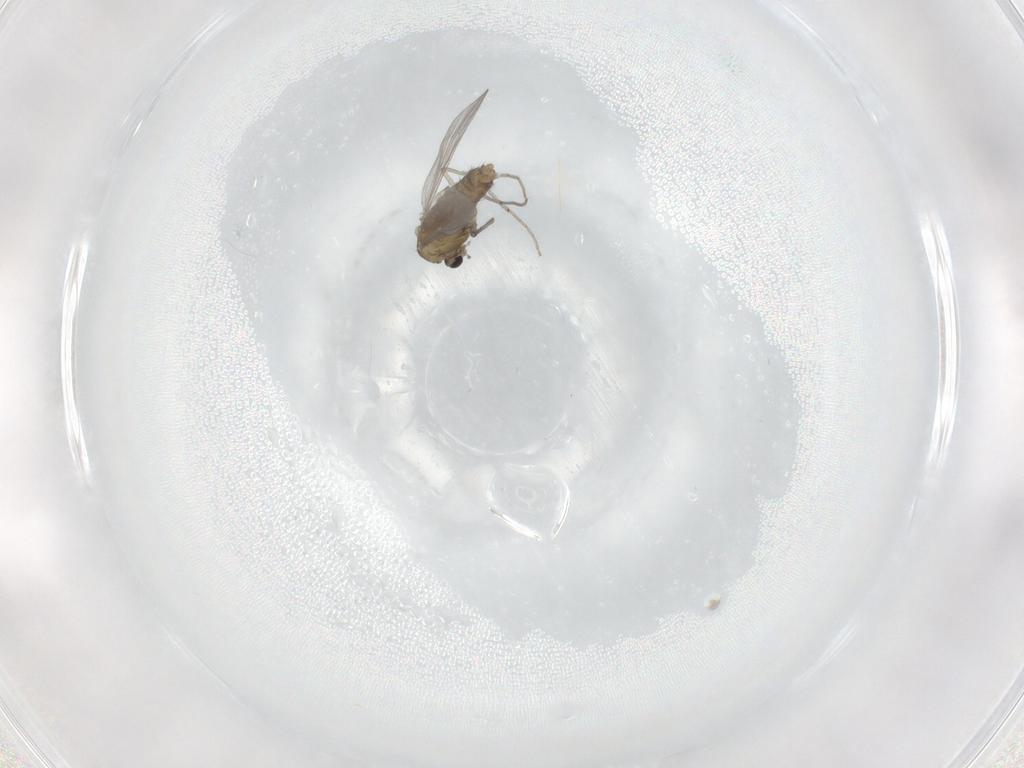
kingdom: Animalia
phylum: Arthropoda
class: Insecta
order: Diptera
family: Chironomidae
